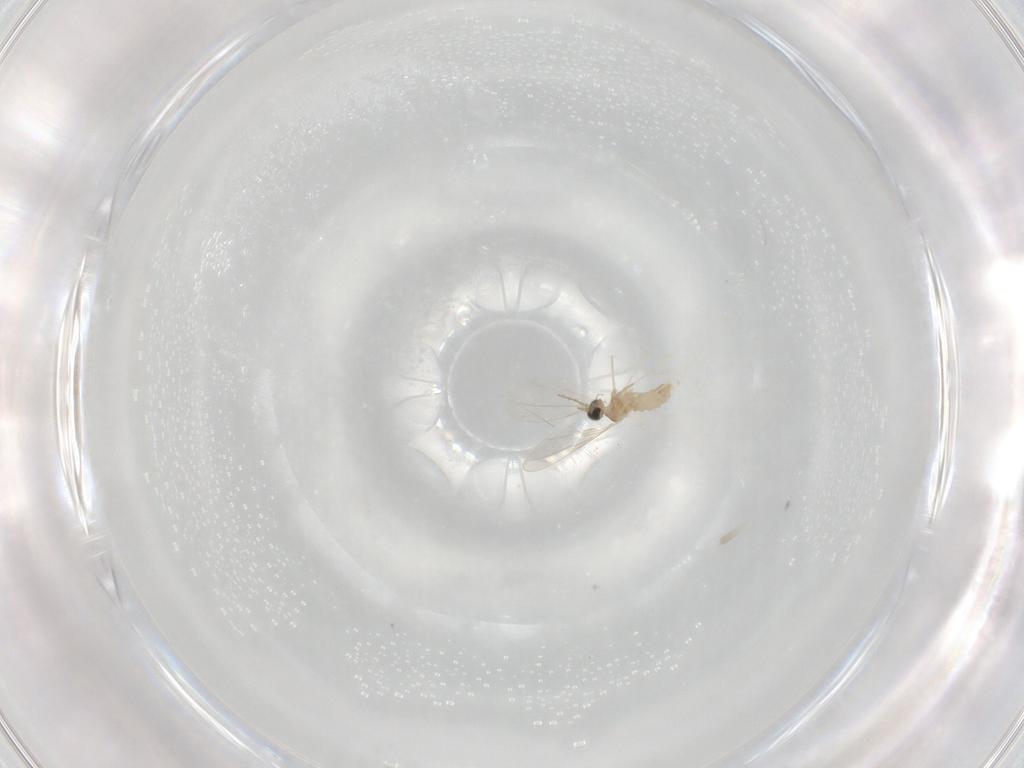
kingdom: Animalia
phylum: Arthropoda
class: Insecta
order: Diptera
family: Cecidomyiidae
